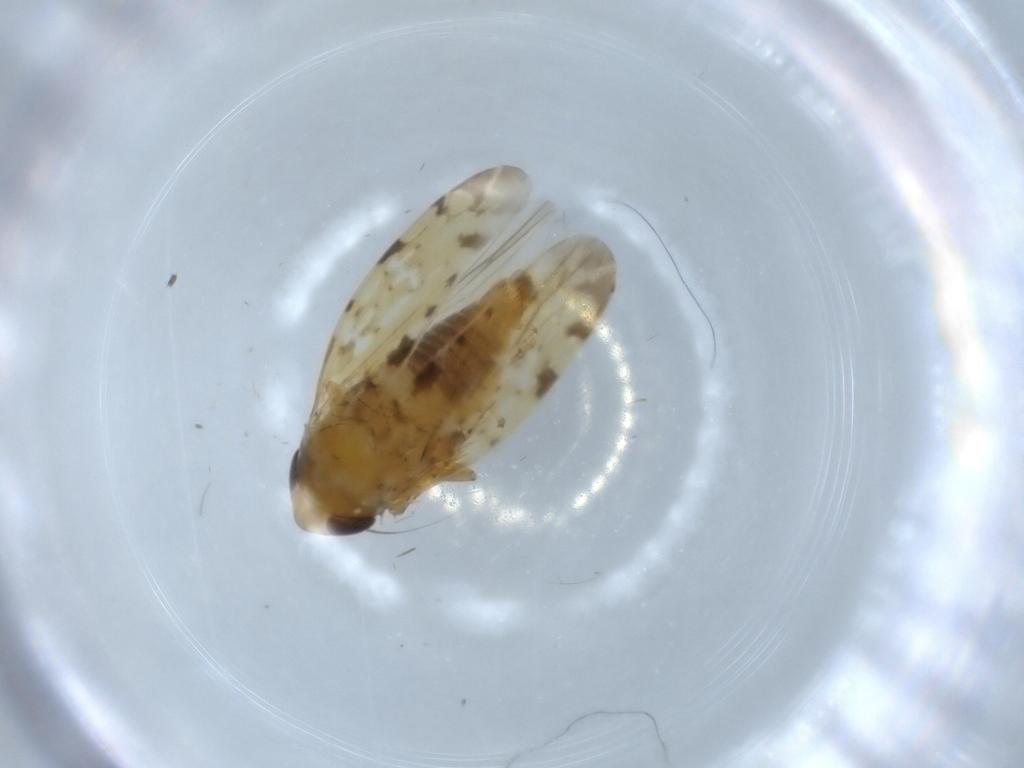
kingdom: Animalia
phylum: Arthropoda
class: Insecta
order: Hemiptera
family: Cicadellidae
